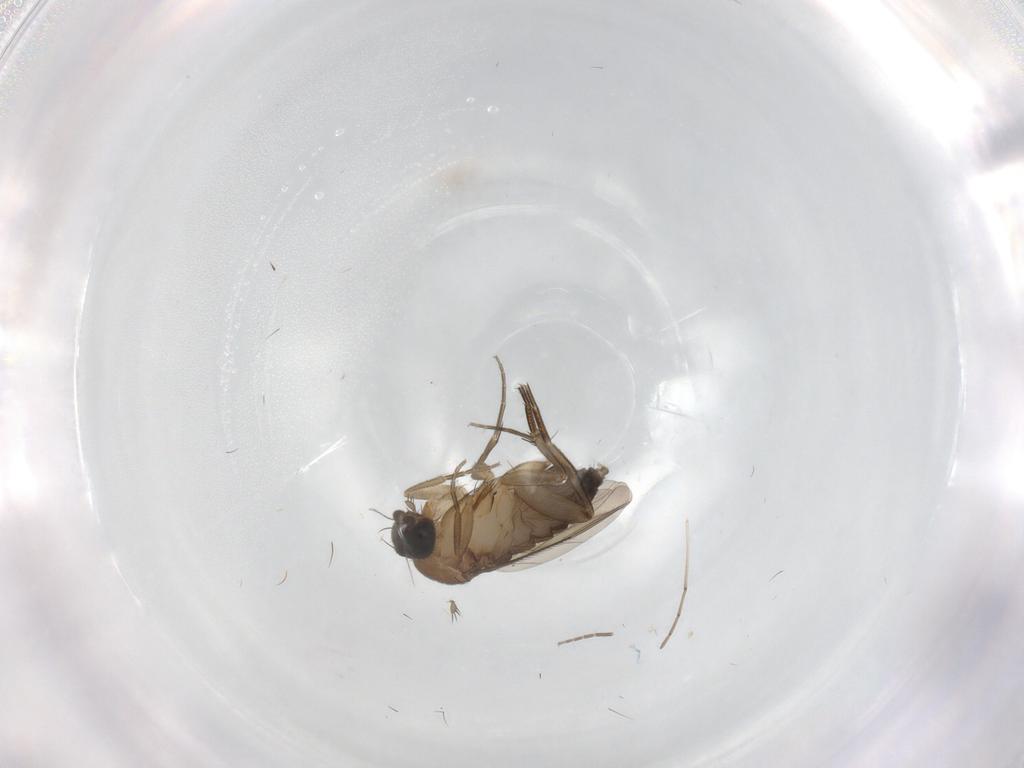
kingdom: Animalia
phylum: Arthropoda
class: Insecta
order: Diptera
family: Phoridae
